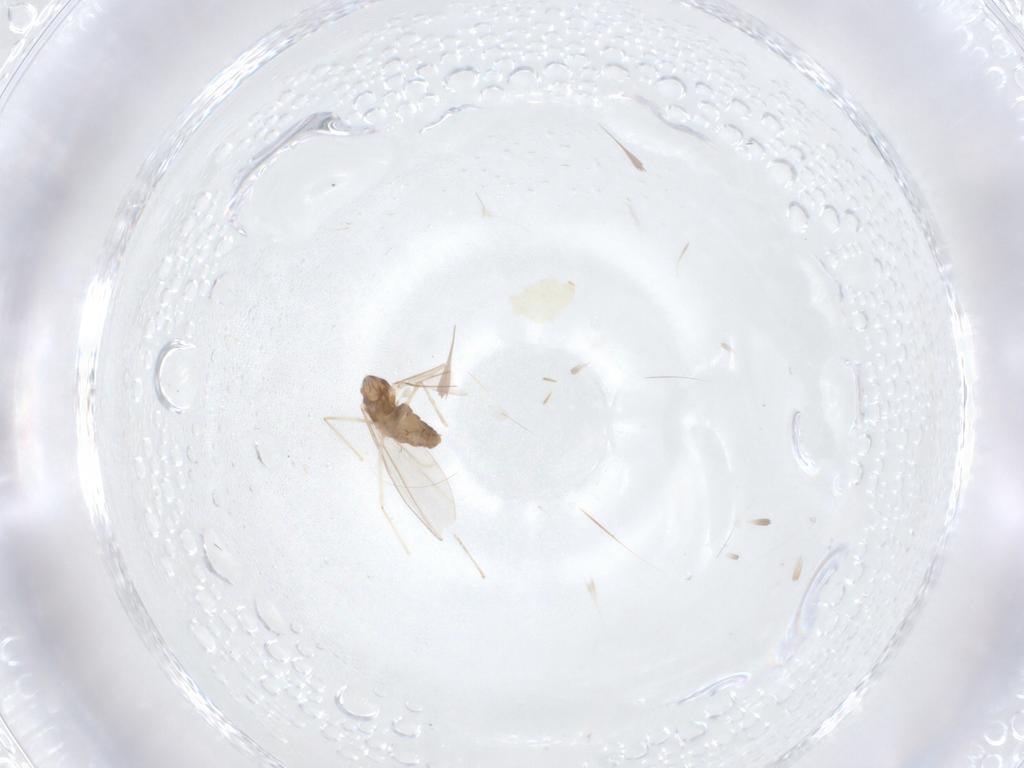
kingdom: Animalia
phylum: Arthropoda
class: Insecta
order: Diptera
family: Cecidomyiidae
